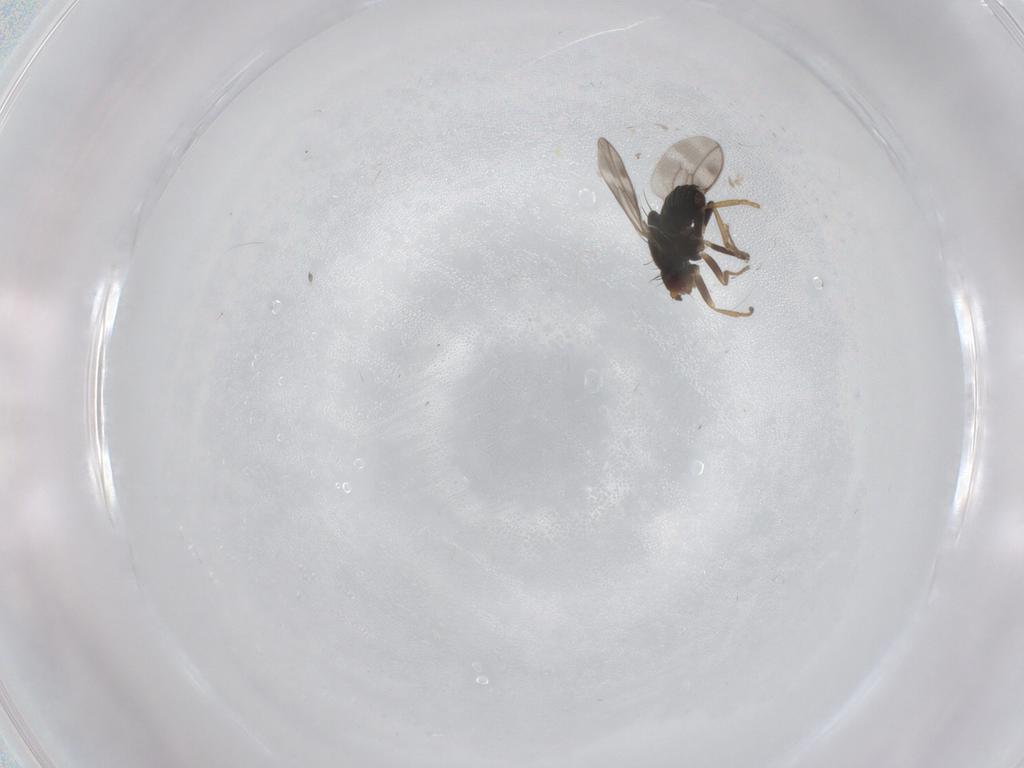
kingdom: Animalia
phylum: Arthropoda
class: Insecta
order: Diptera
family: Sphaeroceridae
